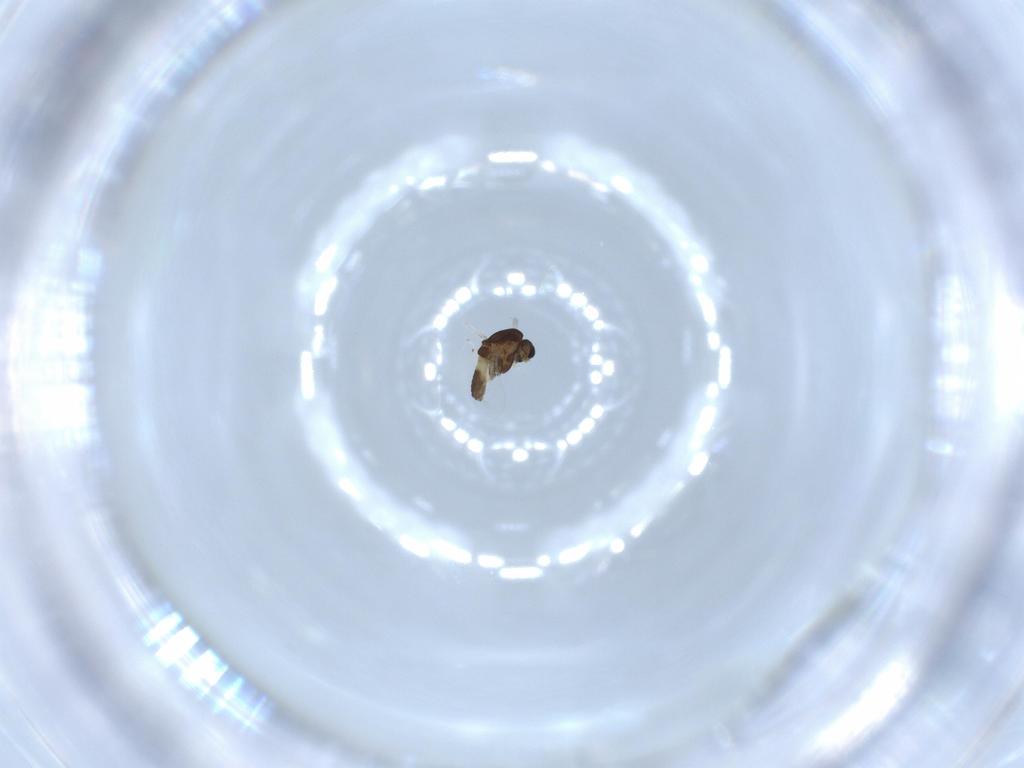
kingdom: Animalia
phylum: Arthropoda
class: Insecta
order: Diptera
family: Chironomidae
